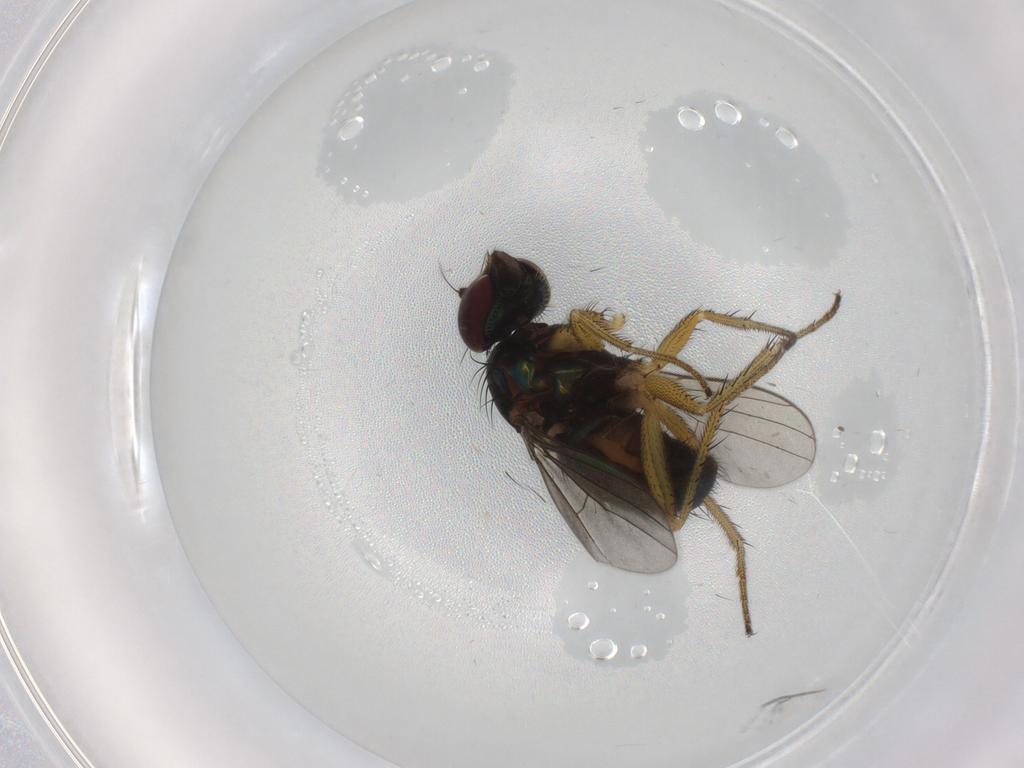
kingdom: Animalia
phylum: Arthropoda
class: Insecta
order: Diptera
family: Dolichopodidae
